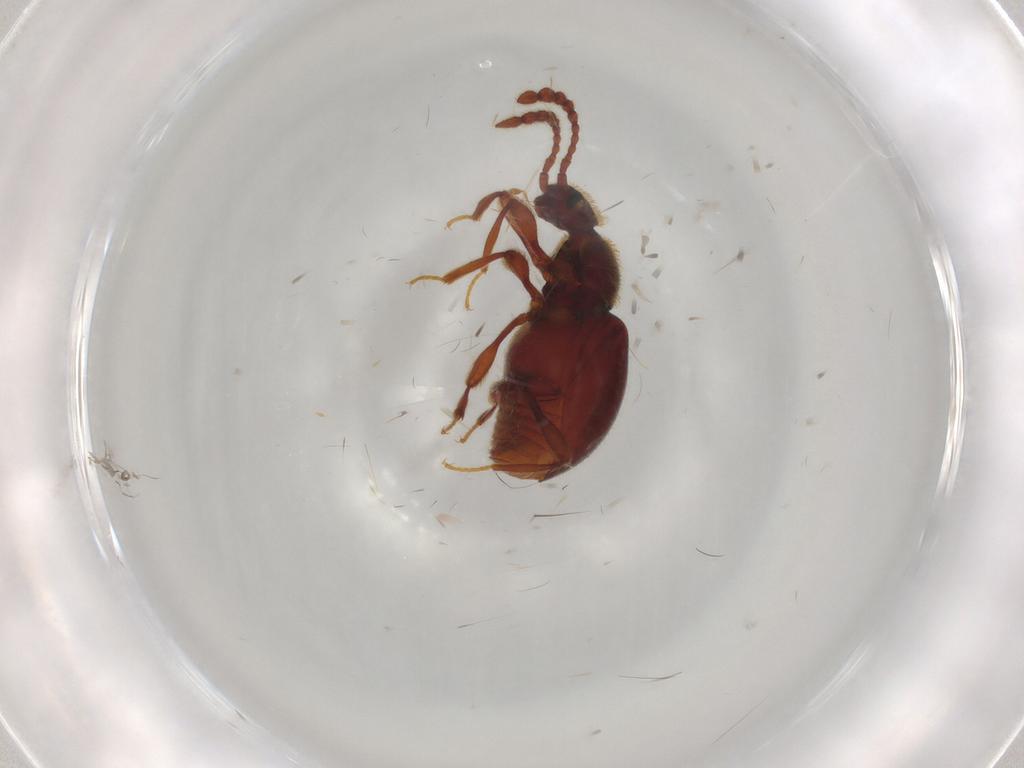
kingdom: Animalia
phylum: Arthropoda
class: Insecta
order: Coleoptera
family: Staphylinidae
